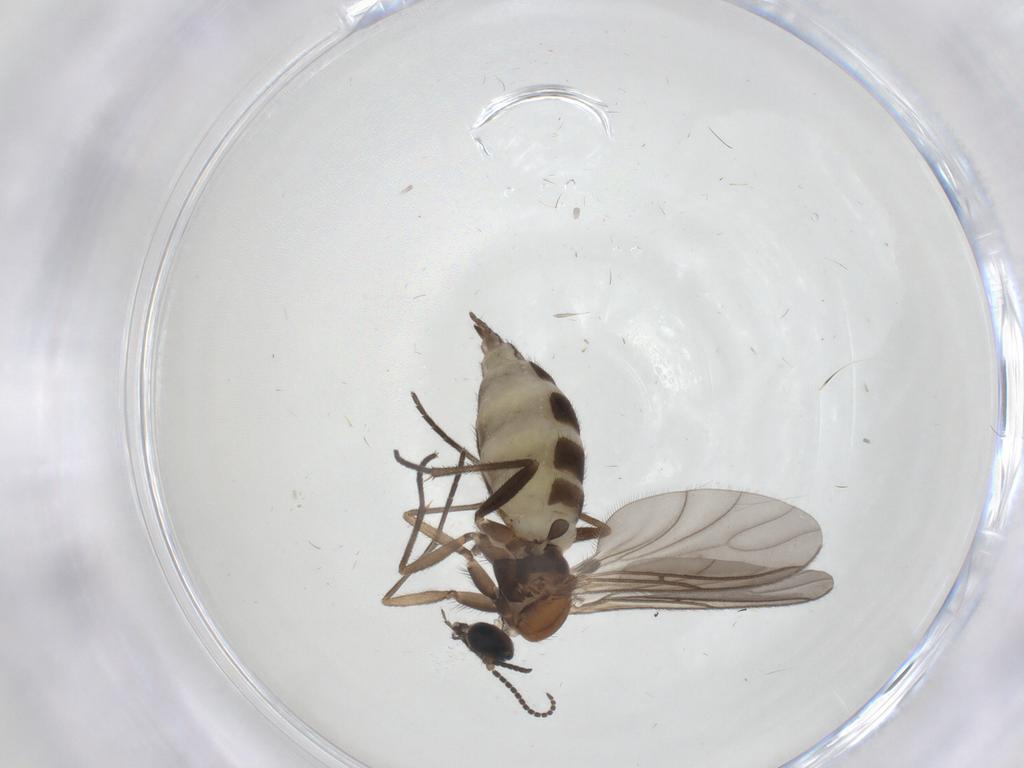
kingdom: Animalia
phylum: Arthropoda
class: Insecta
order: Diptera
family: Sciaridae
